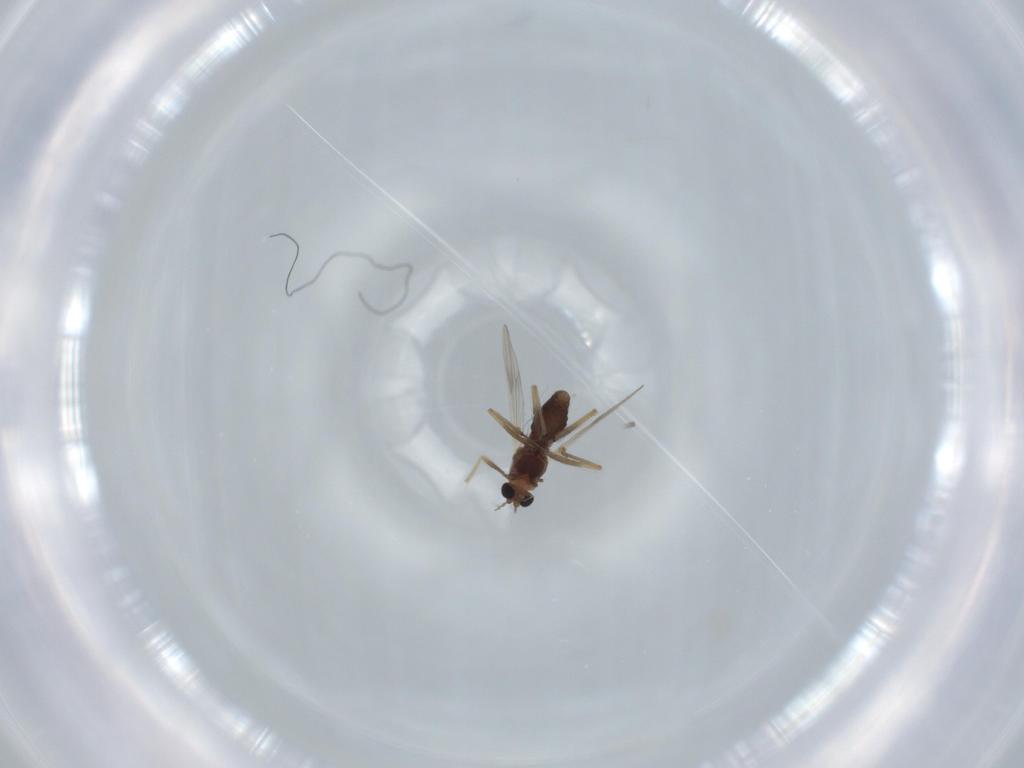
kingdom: Animalia
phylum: Arthropoda
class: Insecta
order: Diptera
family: Chironomidae
